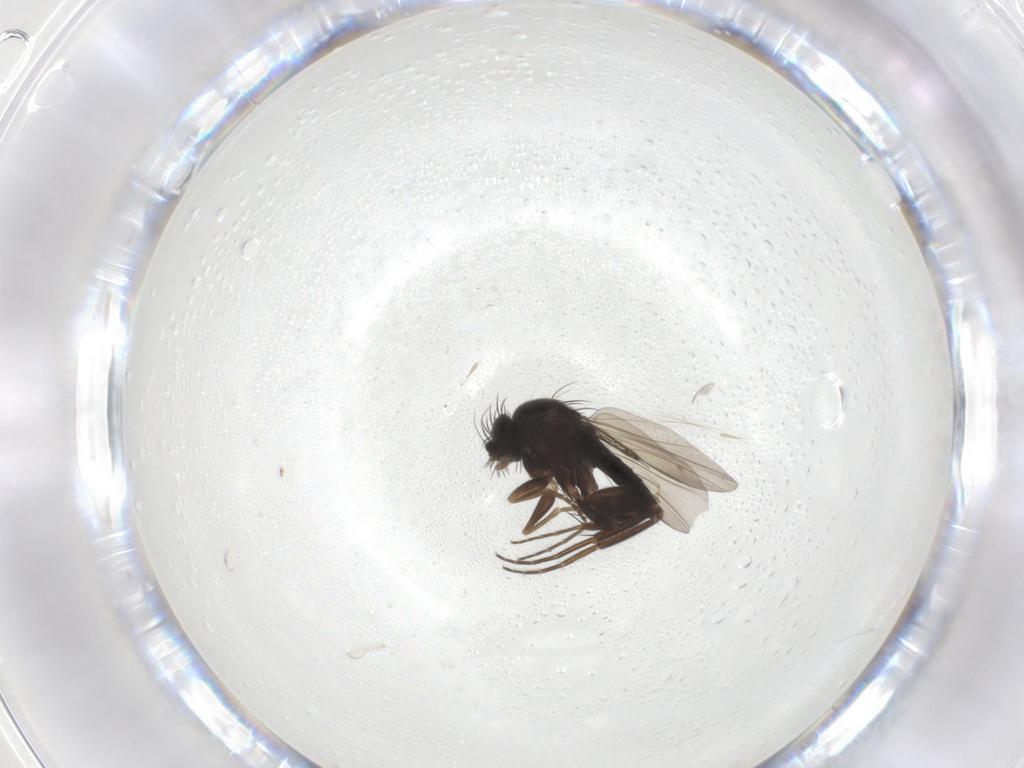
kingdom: Animalia
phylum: Arthropoda
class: Insecta
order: Diptera
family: Phoridae
